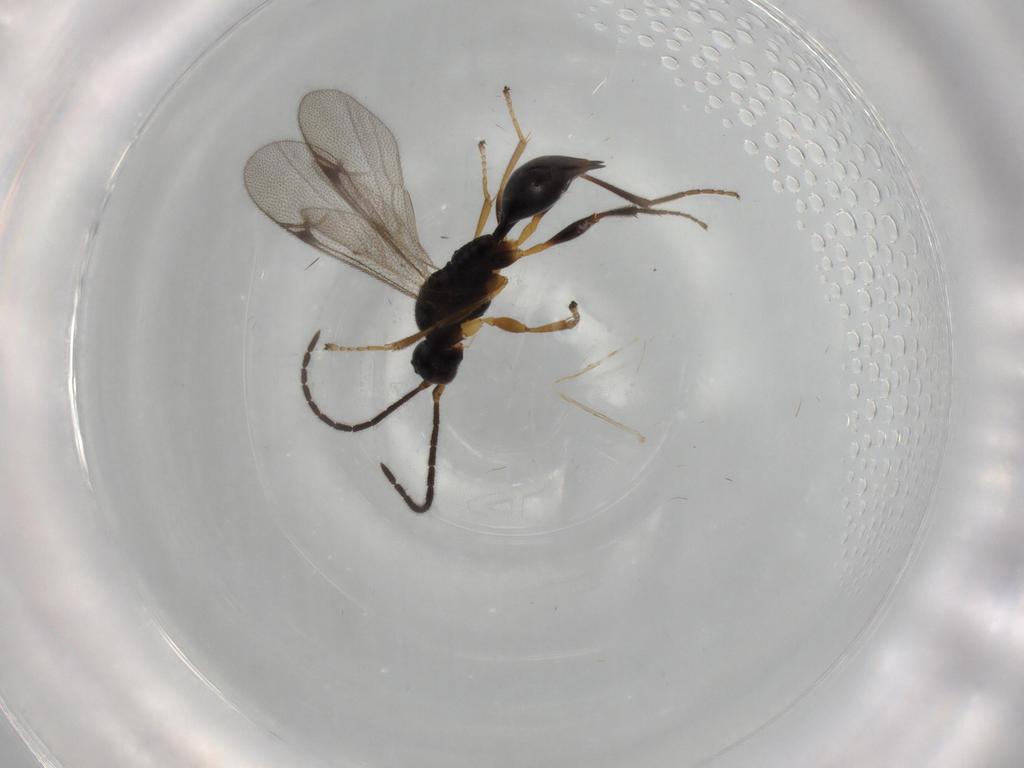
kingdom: Animalia
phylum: Arthropoda
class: Insecta
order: Hymenoptera
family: Proctotrupidae
